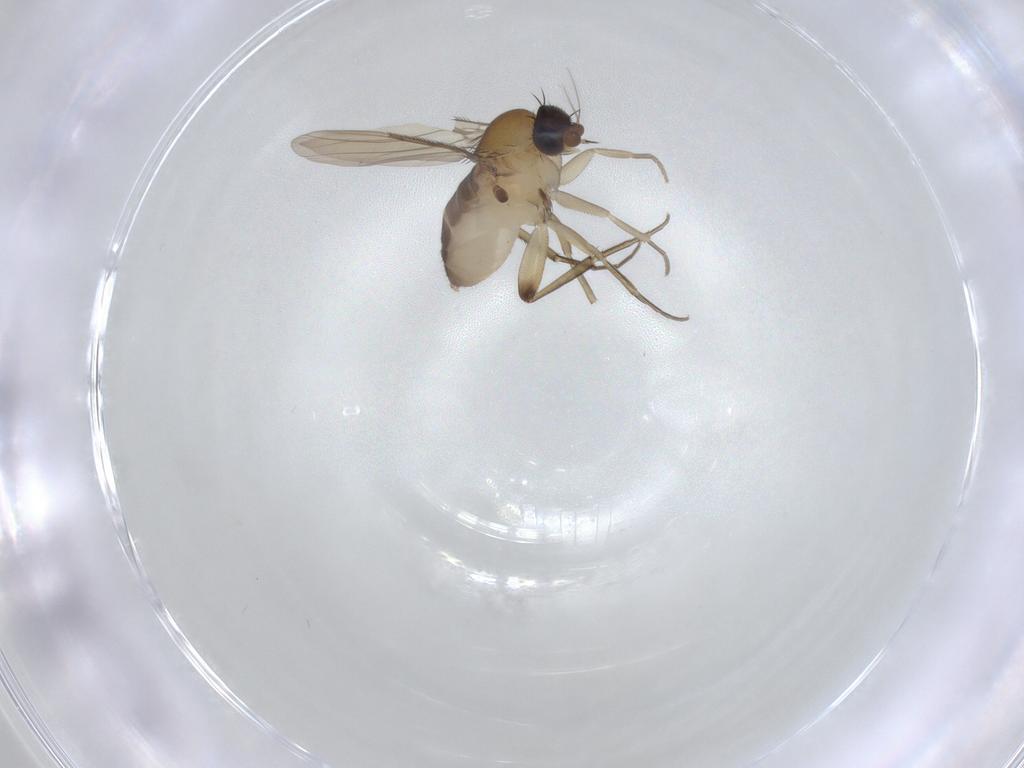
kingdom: Animalia
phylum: Arthropoda
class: Insecta
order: Diptera
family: Phoridae
